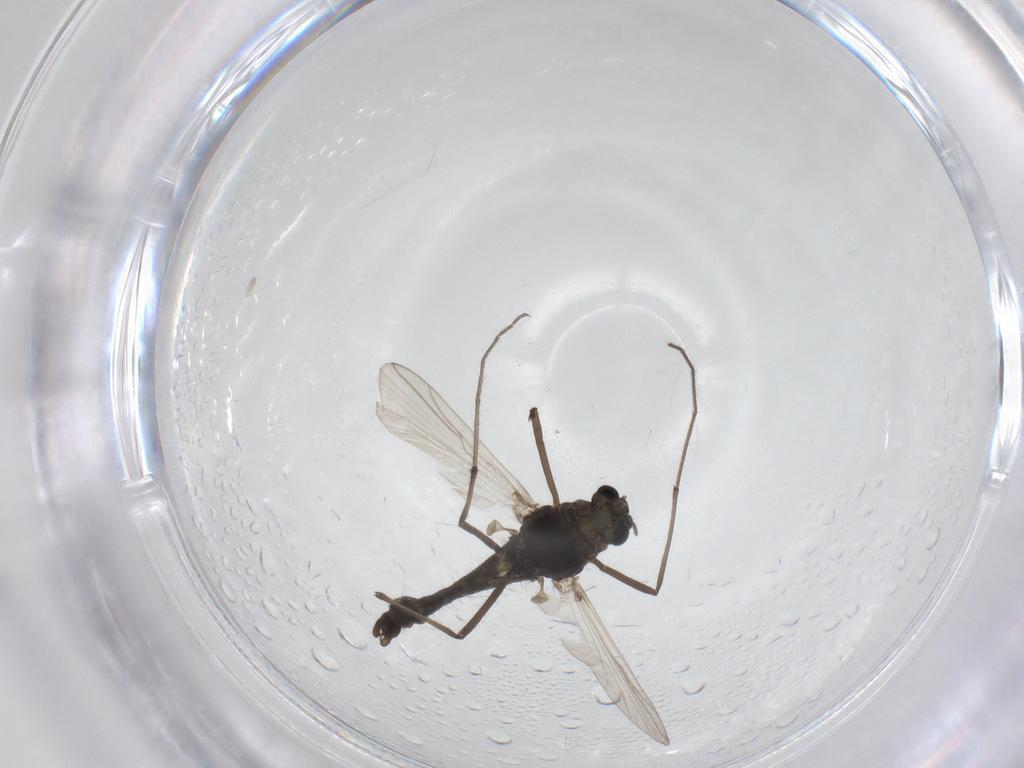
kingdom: Animalia
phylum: Arthropoda
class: Insecta
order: Diptera
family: Chironomidae
